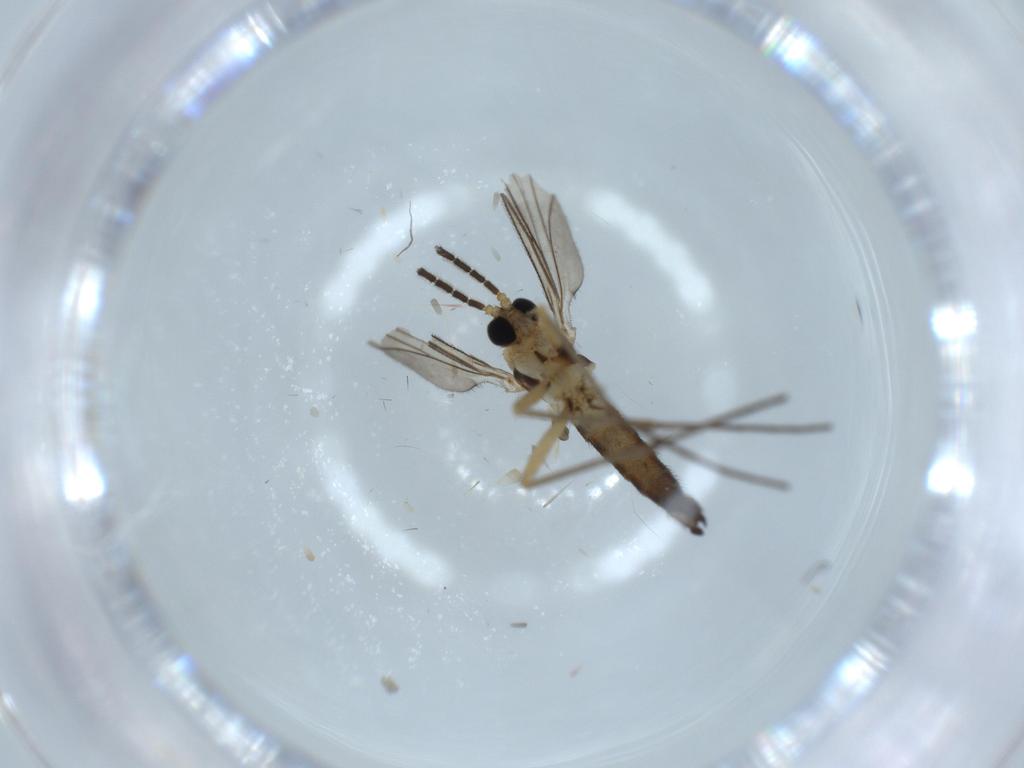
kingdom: Animalia
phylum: Arthropoda
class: Insecta
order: Diptera
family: Sciaridae
